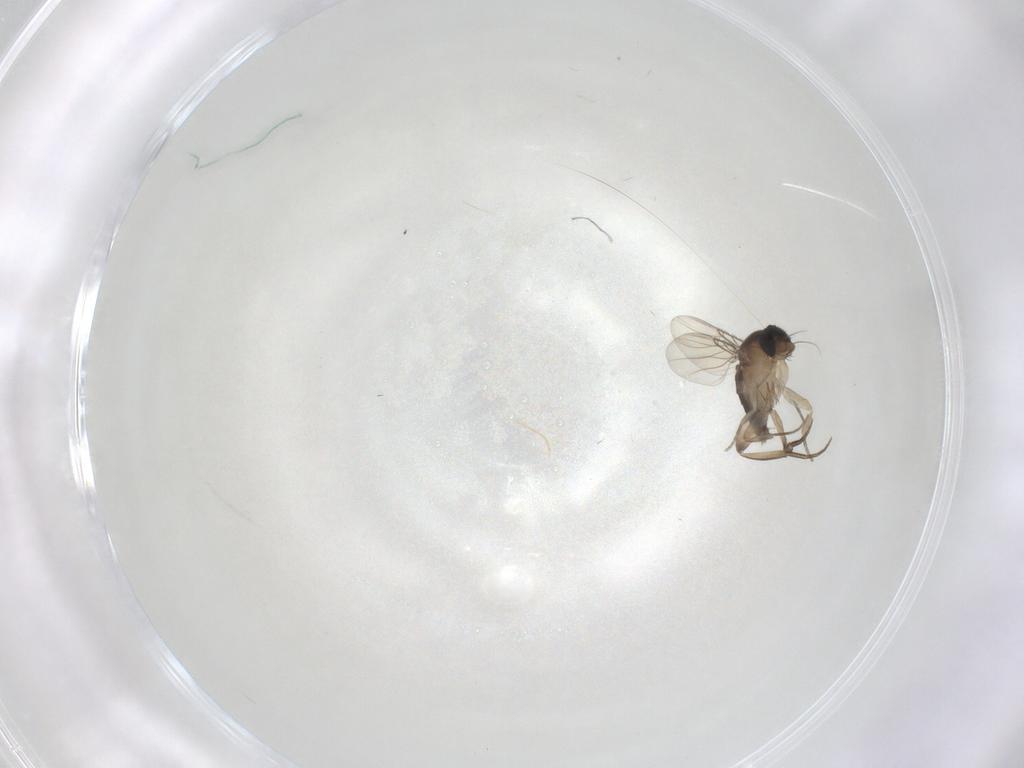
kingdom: Animalia
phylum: Arthropoda
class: Insecta
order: Diptera
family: Phoridae
